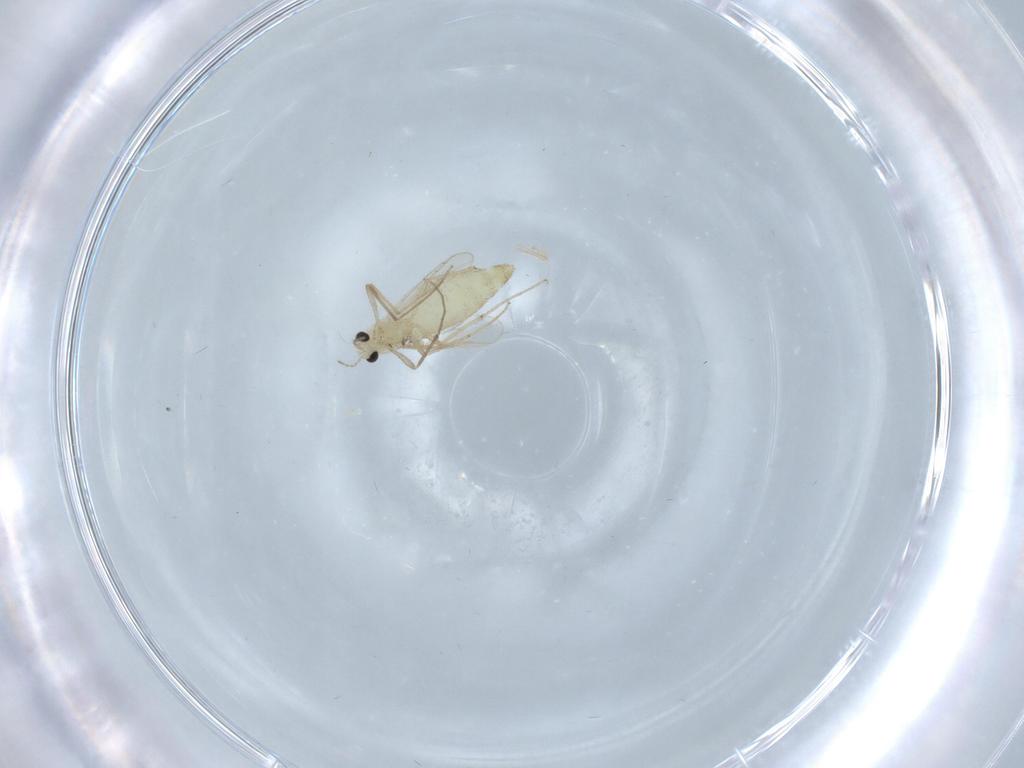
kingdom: Animalia
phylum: Arthropoda
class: Insecta
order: Diptera
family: Chironomidae
